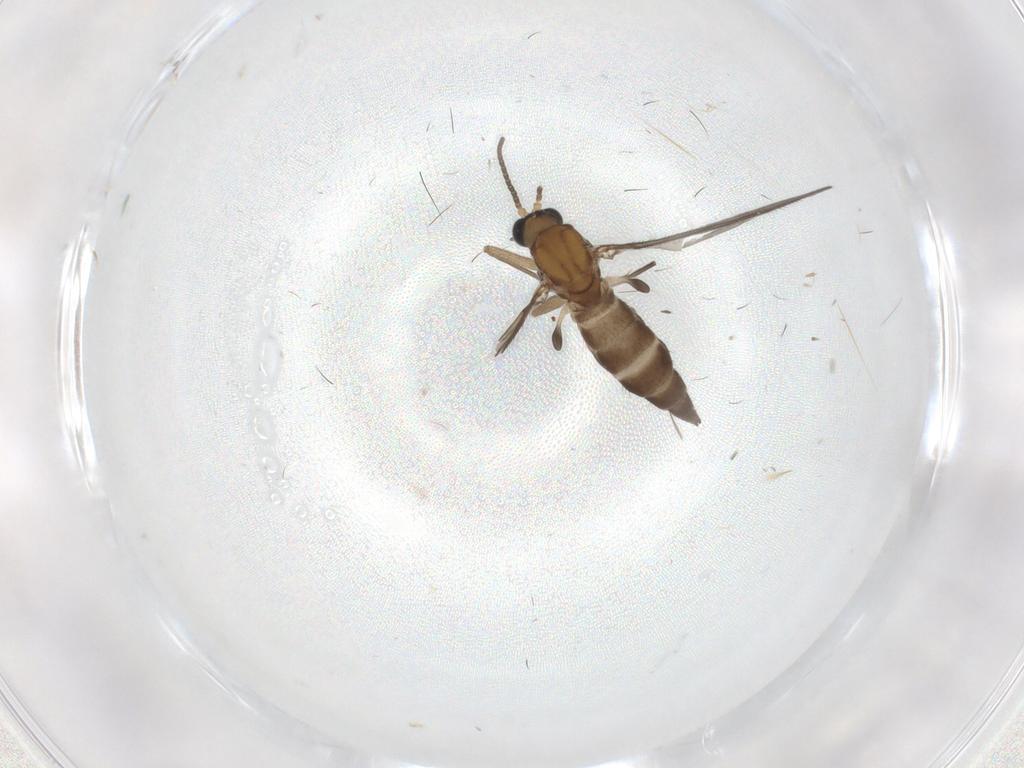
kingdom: Animalia
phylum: Arthropoda
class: Insecta
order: Diptera
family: Sciaridae
